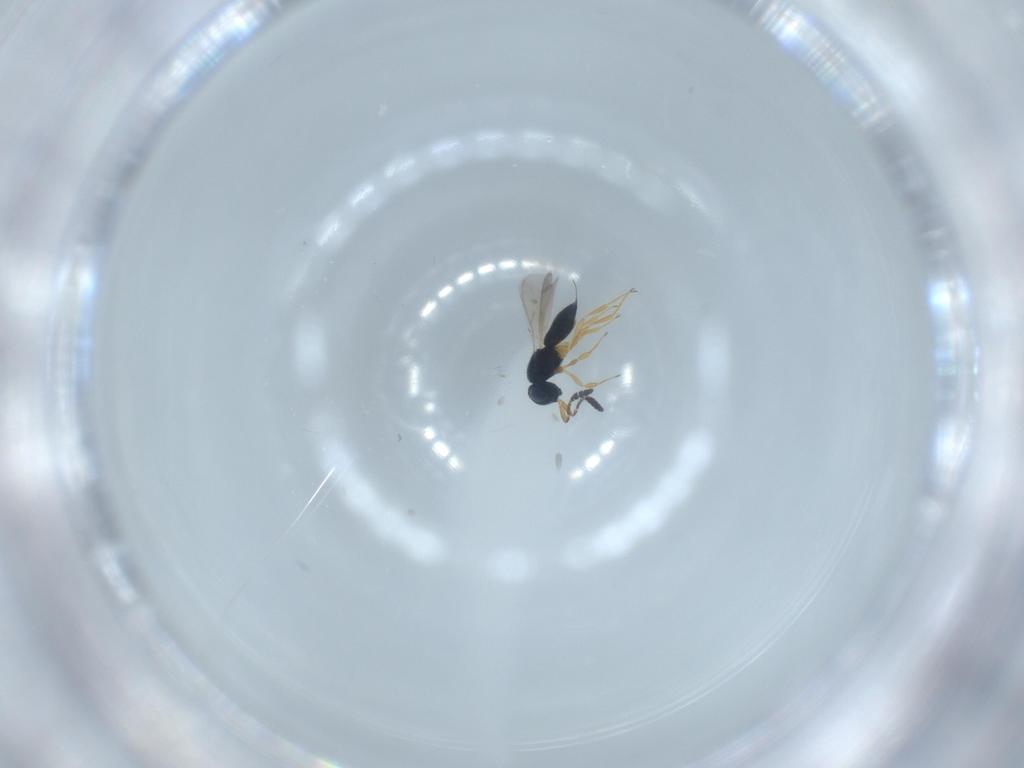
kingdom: Animalia
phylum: Arthropoda
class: Insecta
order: Hymenoptera
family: Scelionidae
